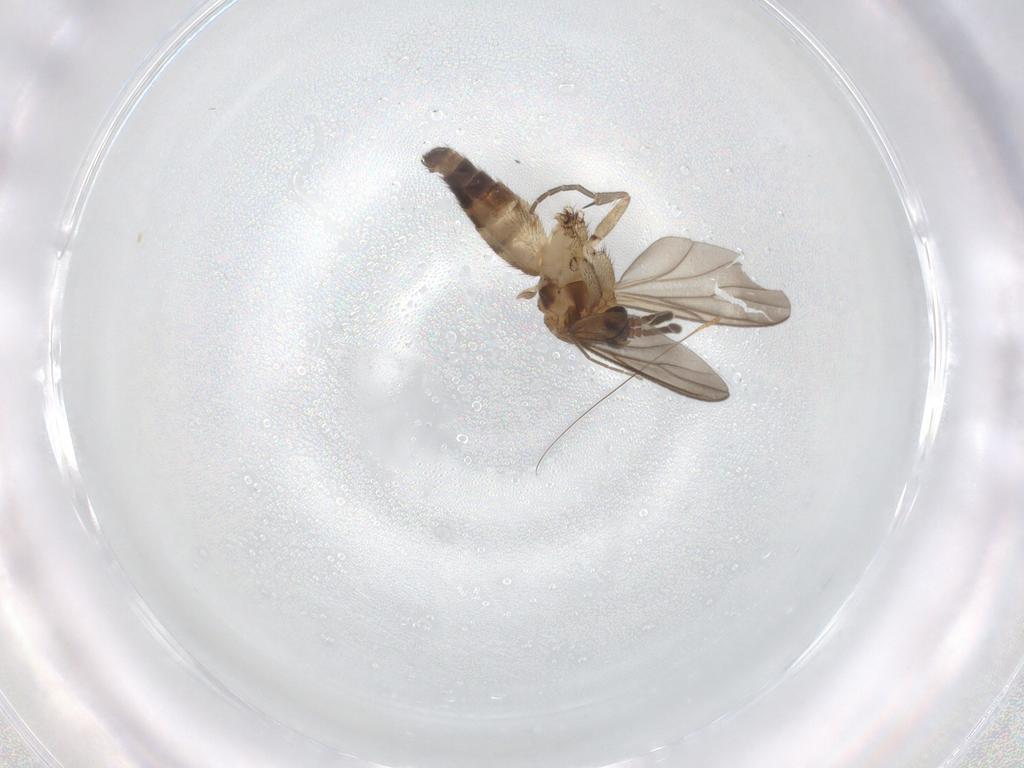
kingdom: Animalia
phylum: Arthropoda
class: Insecta
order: Diptera
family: Mycetophilidae
